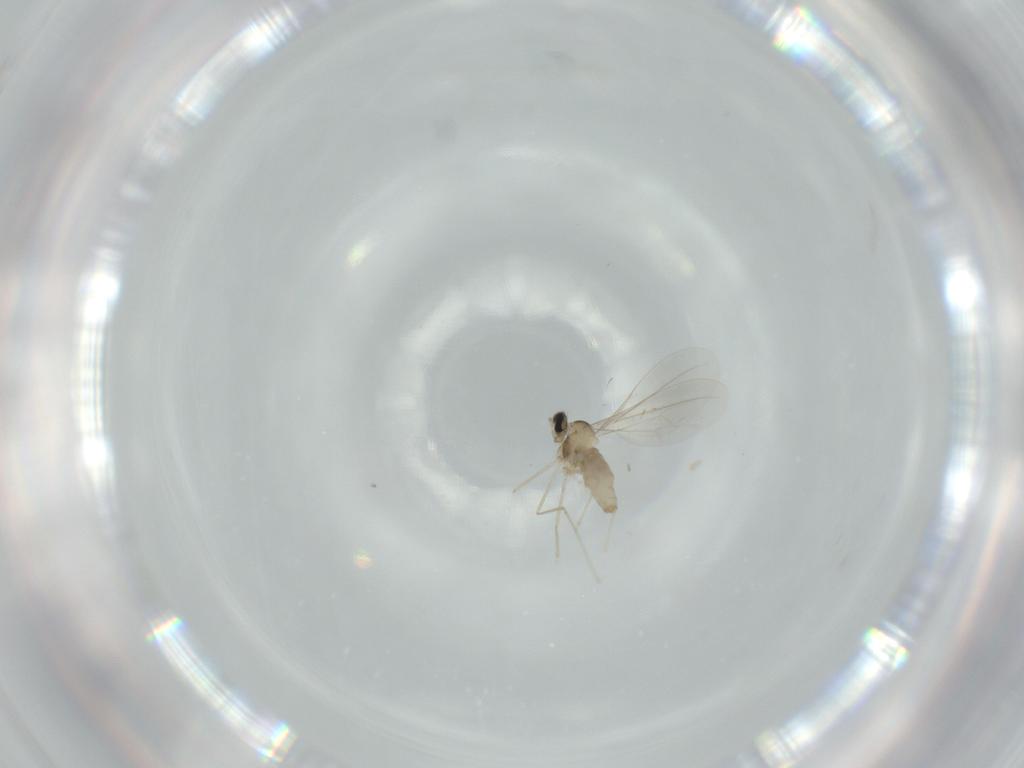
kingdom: Animalia
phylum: Arthropoda
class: Insecta
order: Diptera
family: Cecidomyiidae
